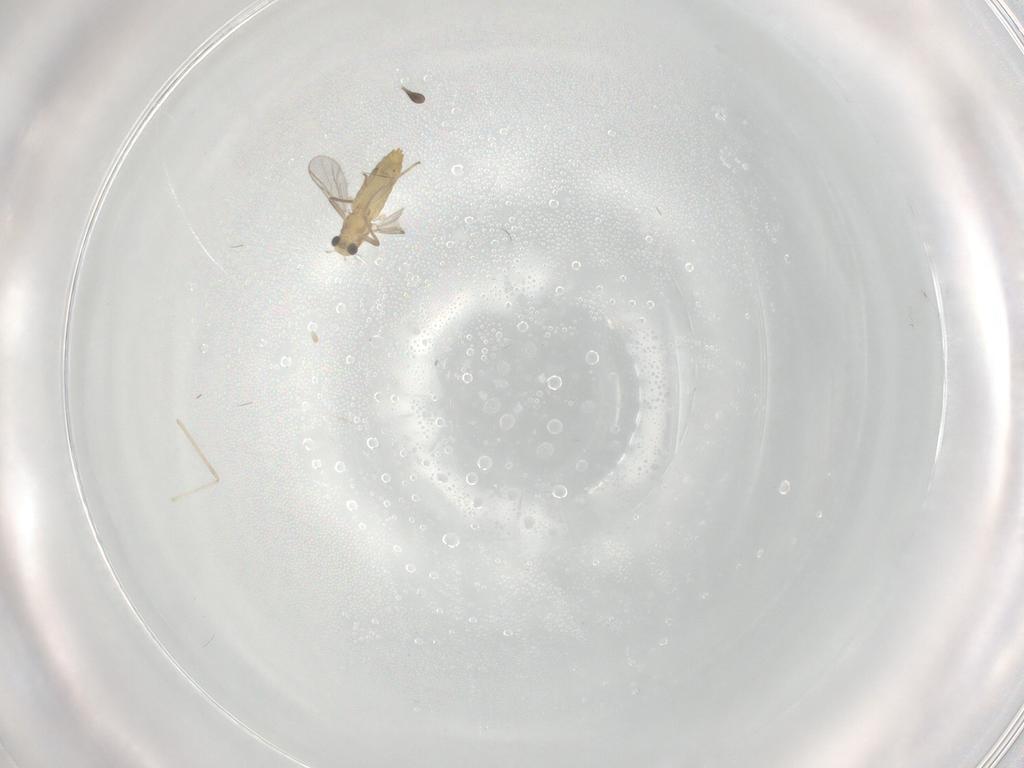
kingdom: Animalia
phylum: Arthropoda
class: Insecta
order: Diptera
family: Chironomidae
